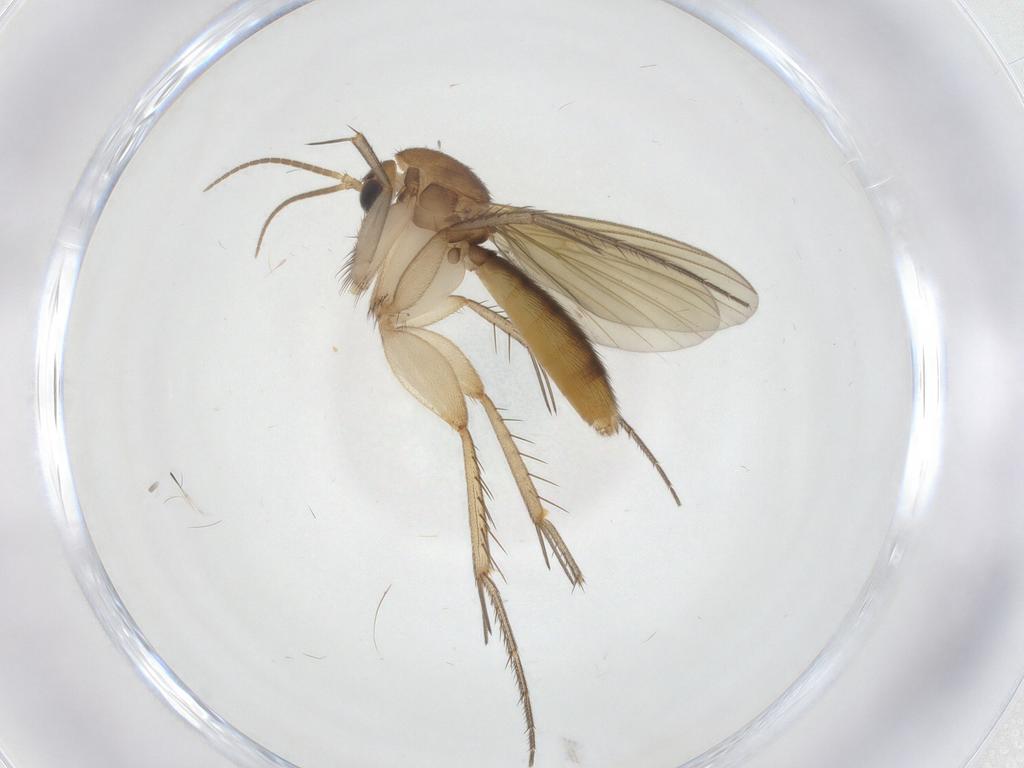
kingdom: Animalia
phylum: Arthropoda
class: Insecta
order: Diptera
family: Mycetophilidae
